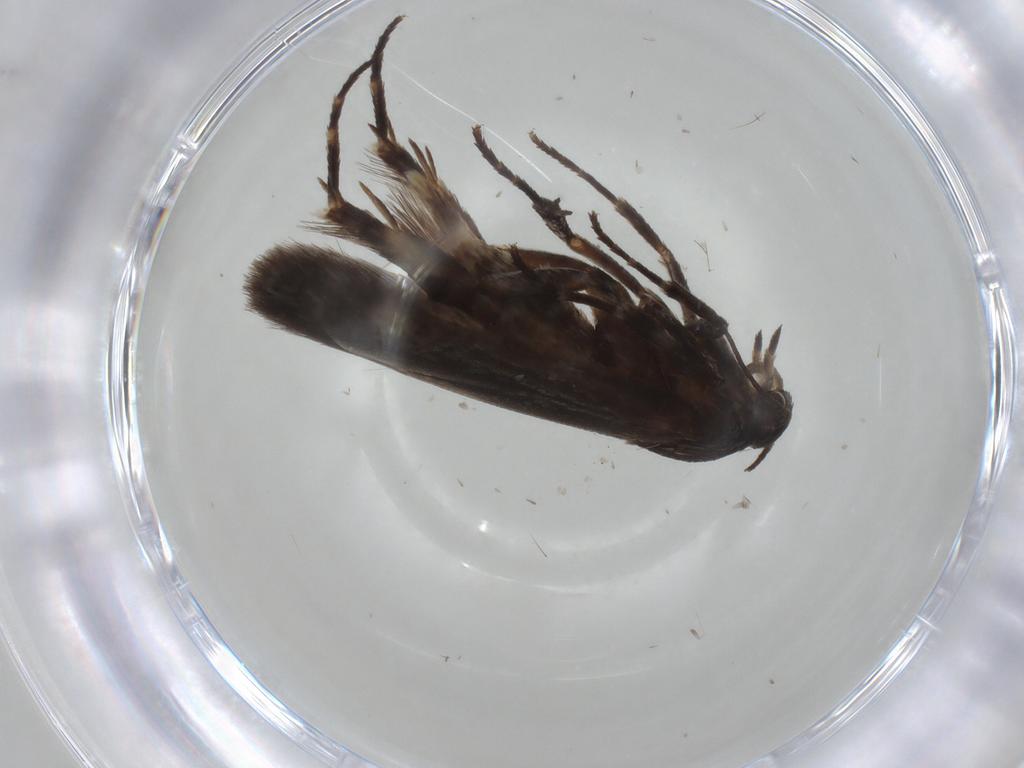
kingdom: Animalia
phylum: Arthropoda
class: Insecta
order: Lepidoptera
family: Scythrididae
